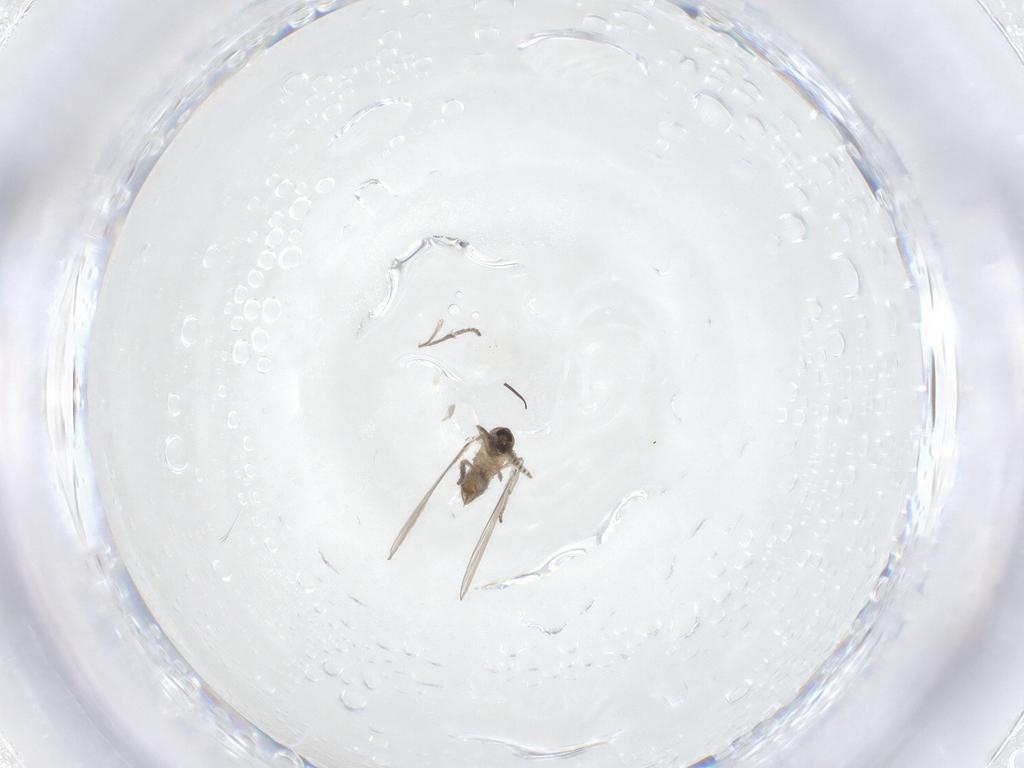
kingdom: Animalia
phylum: Arthropoda
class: Insecta
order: Diptera
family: Psychodidae
